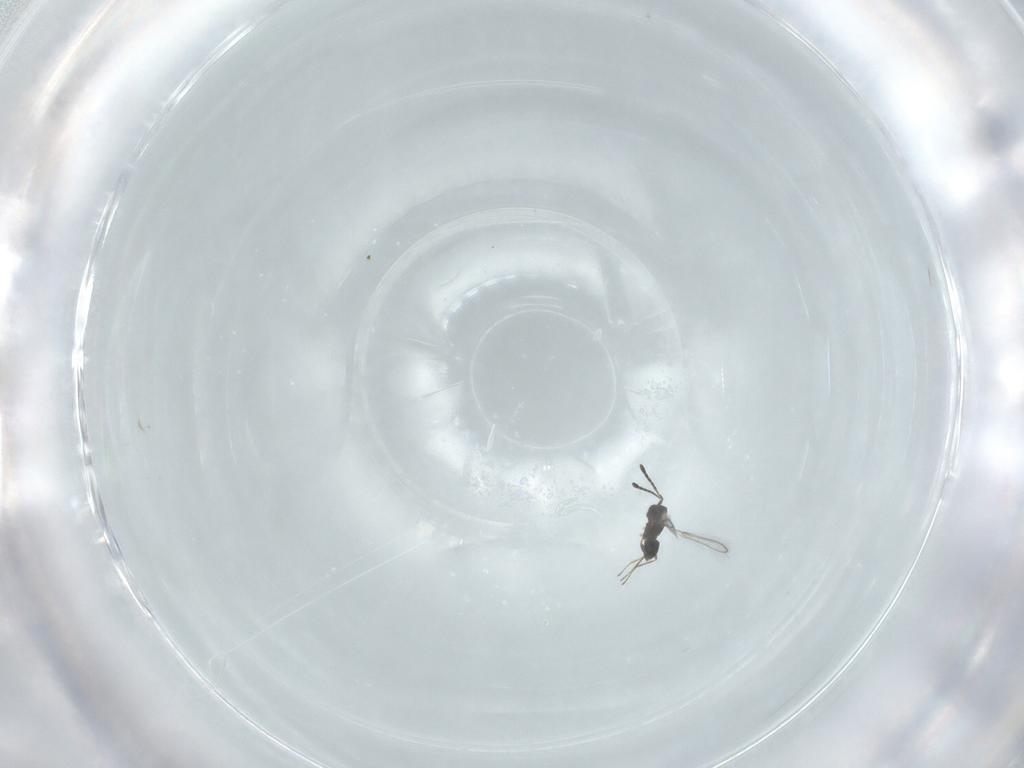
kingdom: Animalia
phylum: Arthropoda
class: Insecta
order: Hymenoptera
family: Mymaridae
